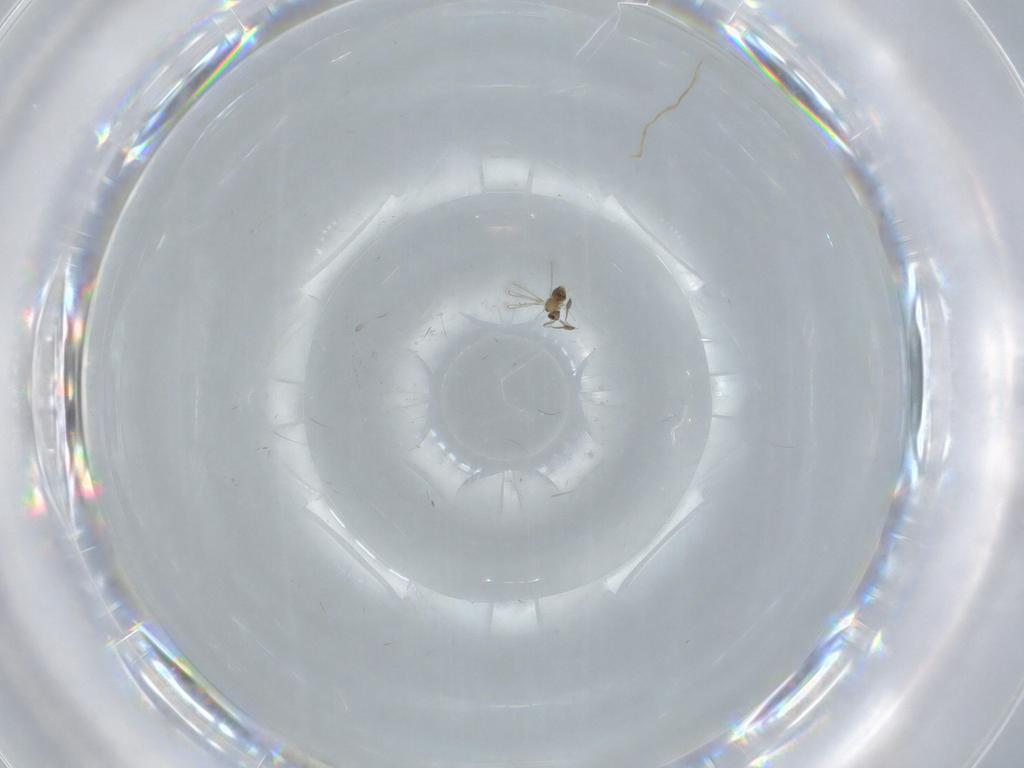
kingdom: Animalia
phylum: Arthropoda
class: Insecta
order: Hymenoptera
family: Mymaridae
